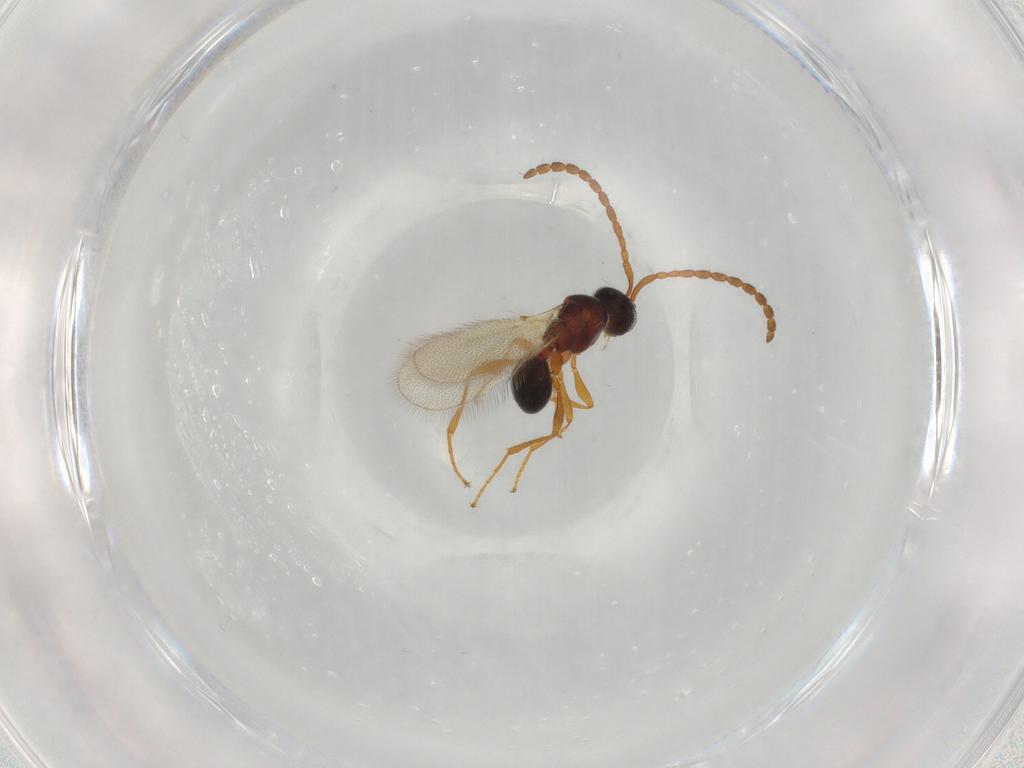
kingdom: Animalia
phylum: Arthropoda
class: Insecta
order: Hymenoptera
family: Diapriidae
